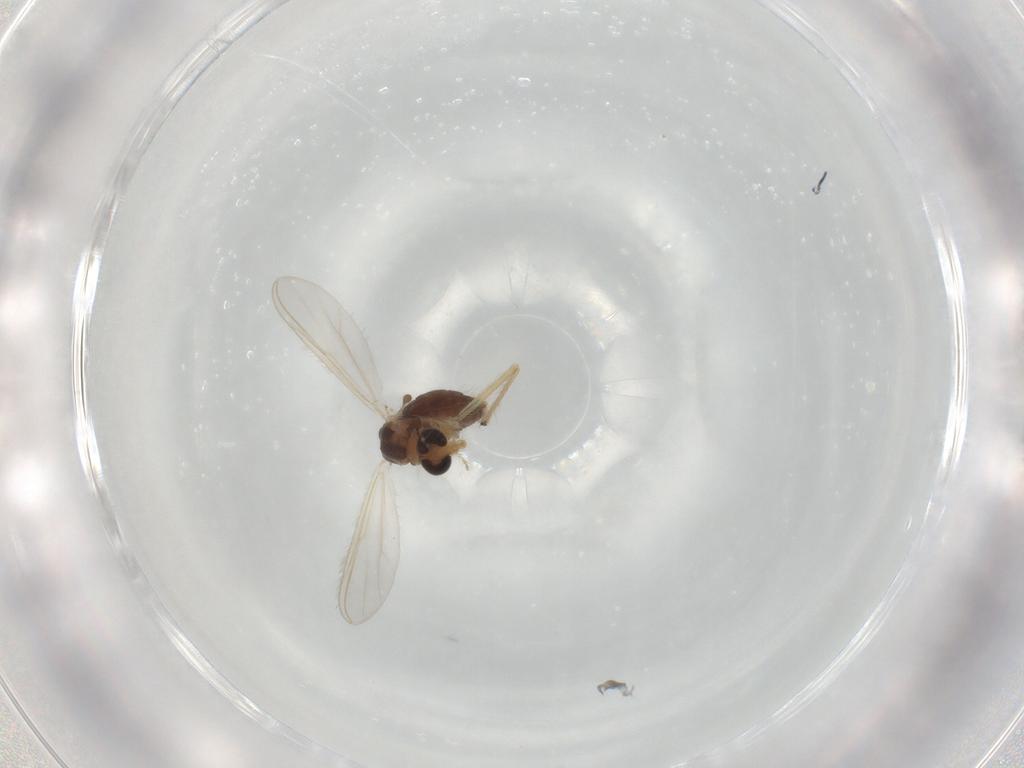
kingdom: Animalia
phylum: Arthropoda
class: Insecta
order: Diptera
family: Chironomidae
